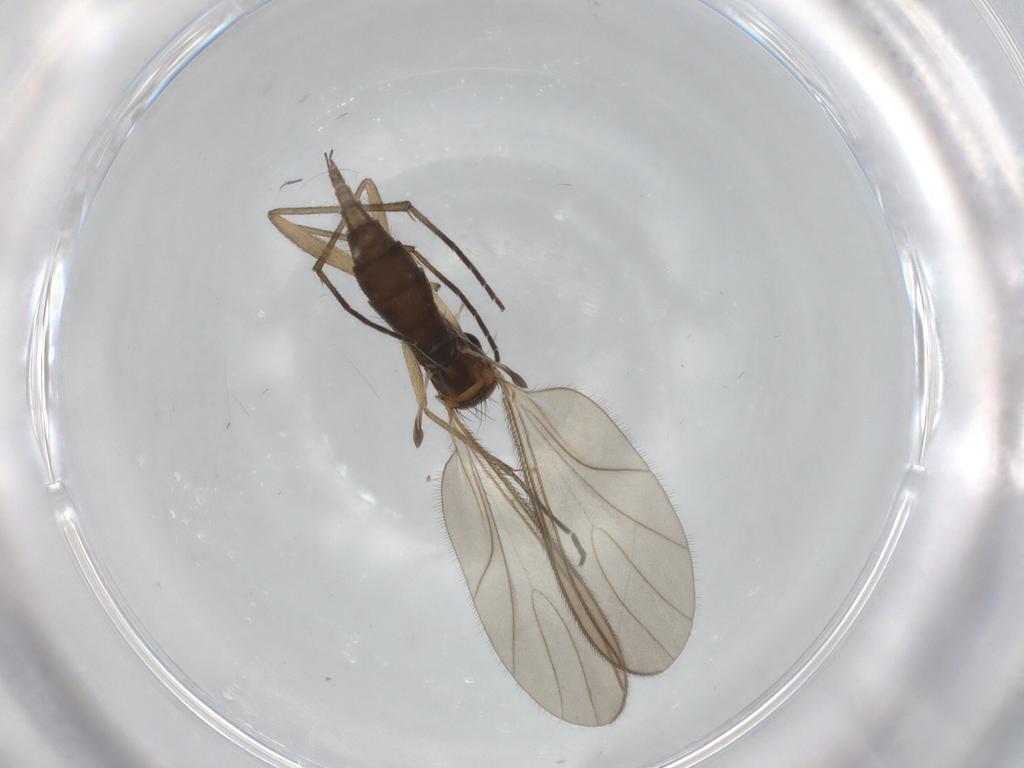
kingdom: Animalia
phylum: Arthropoda
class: Insecta
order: Diptera
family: Sciaridae
